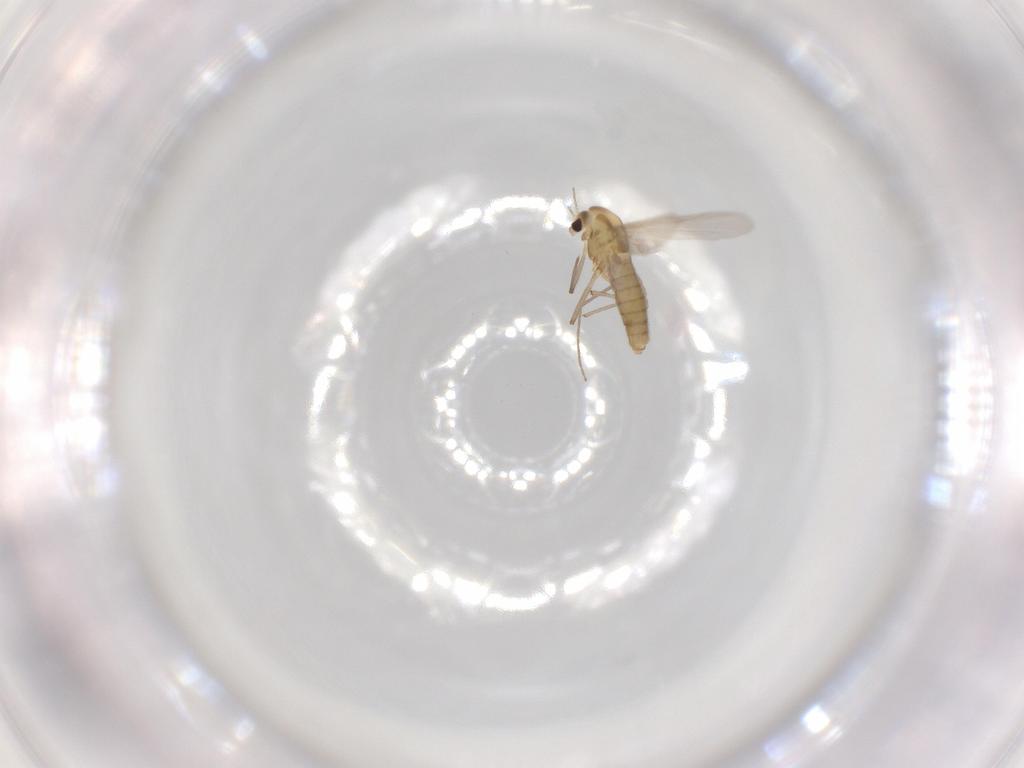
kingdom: Animalia
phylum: Arthropoda
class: Insecta
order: Diptera
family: Chironomidae
